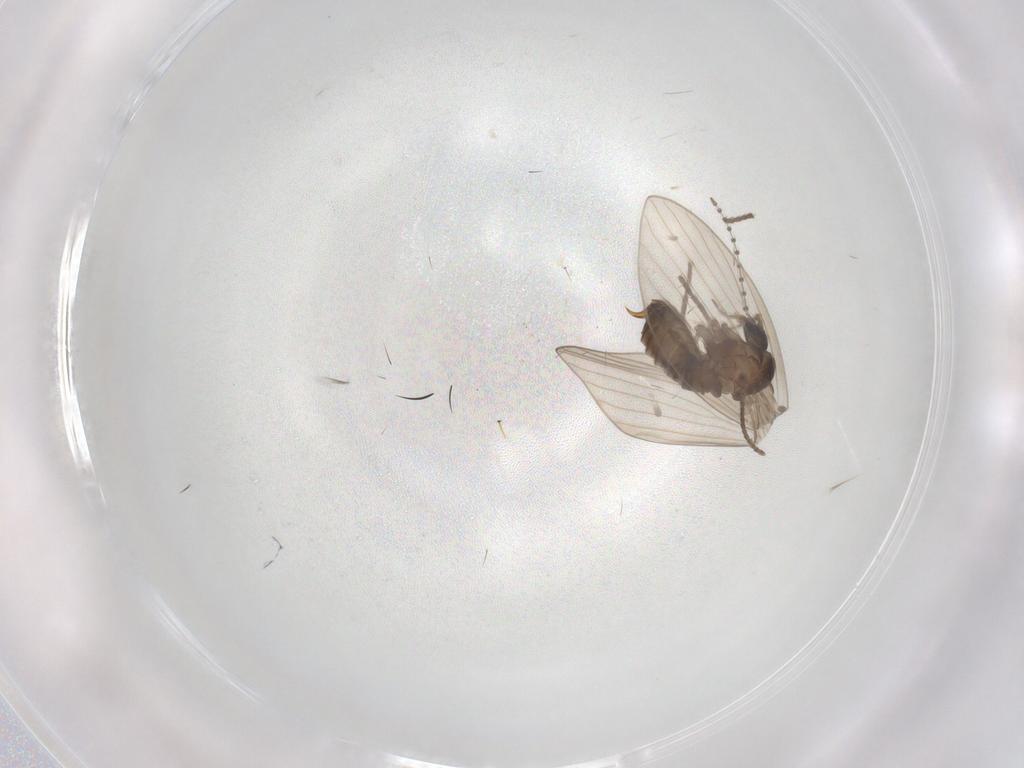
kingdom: Animalia
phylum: Arthropoda
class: Insecta
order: Diptera
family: Psychodidae
